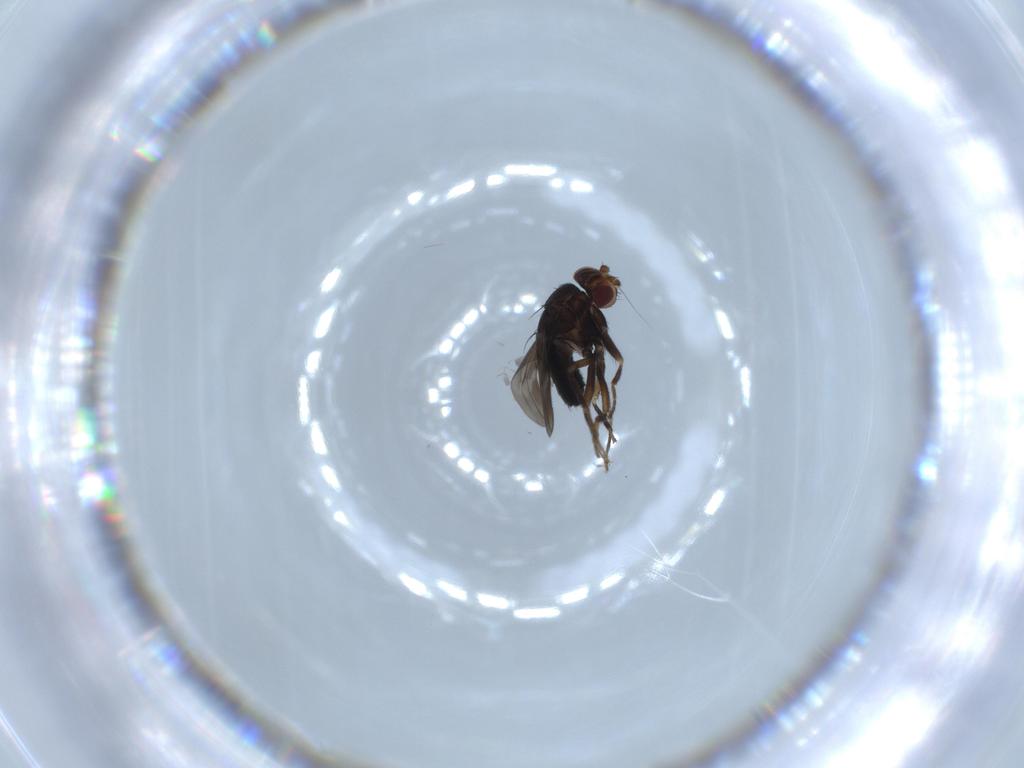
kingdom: Animalia
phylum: Arthropoda
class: Insecta
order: Diptera
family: Sphaeroceridae
